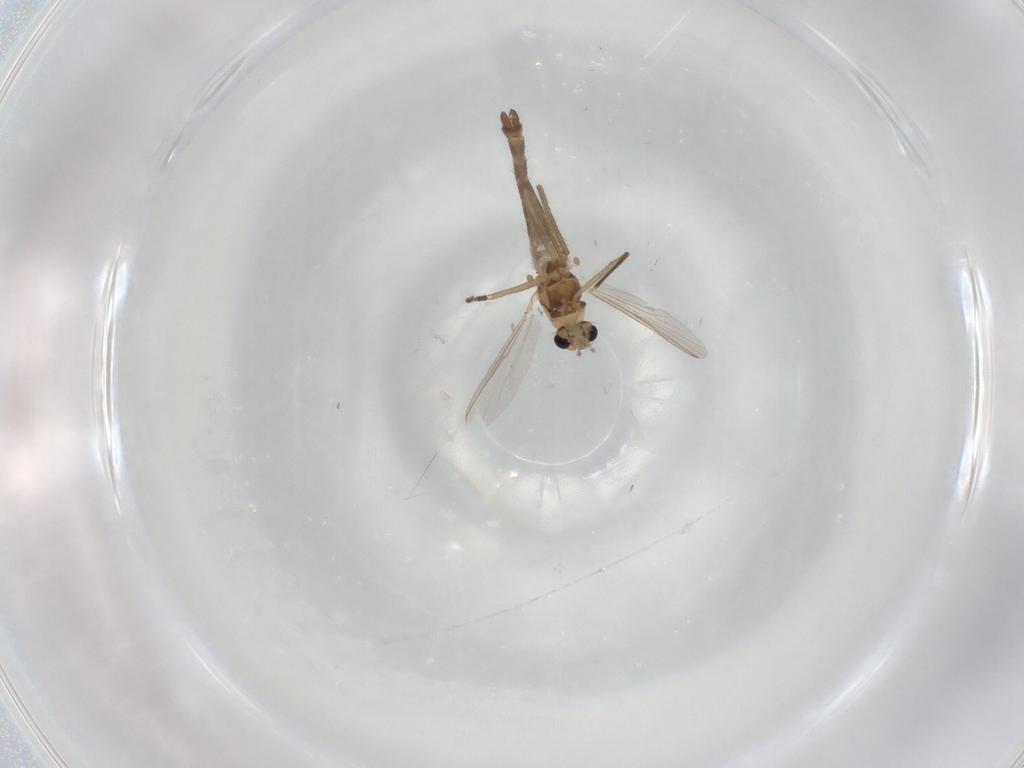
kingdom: Animalia
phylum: Arthropoda
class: Insecta
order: Diptera
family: Chironomidae
